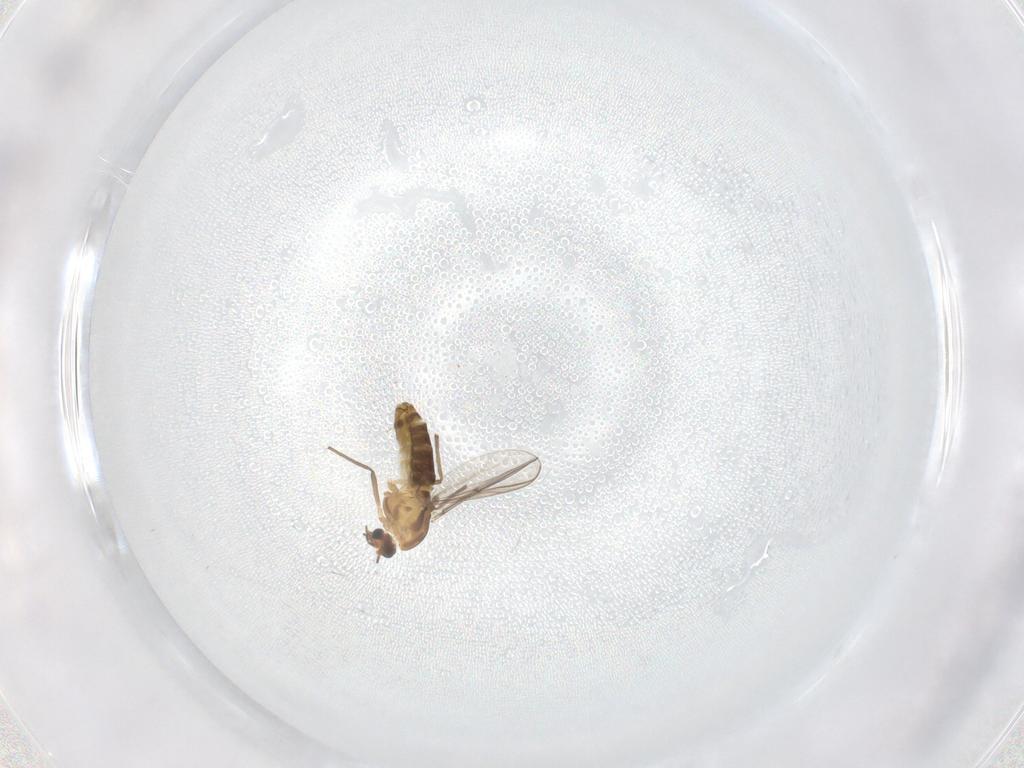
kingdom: Animalia
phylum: Arthropoda
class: Insecta
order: Diptera
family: Chironomidae
